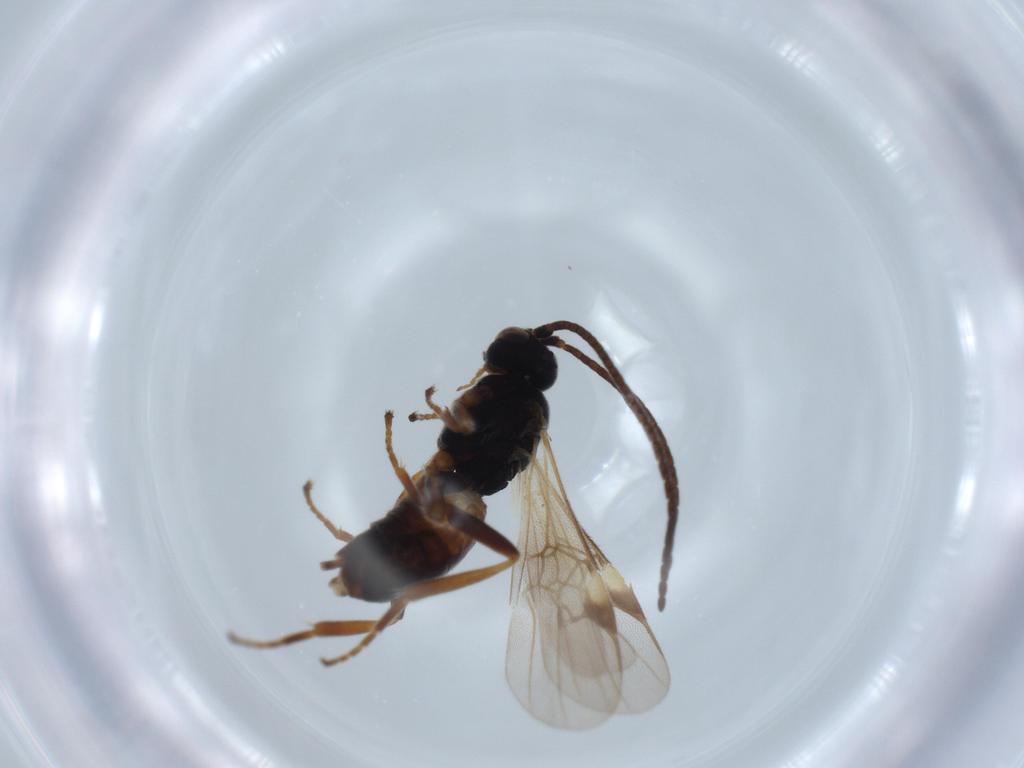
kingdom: Animalia
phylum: Arthropoda
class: Insecta
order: Hymenoptera
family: Braconidae
